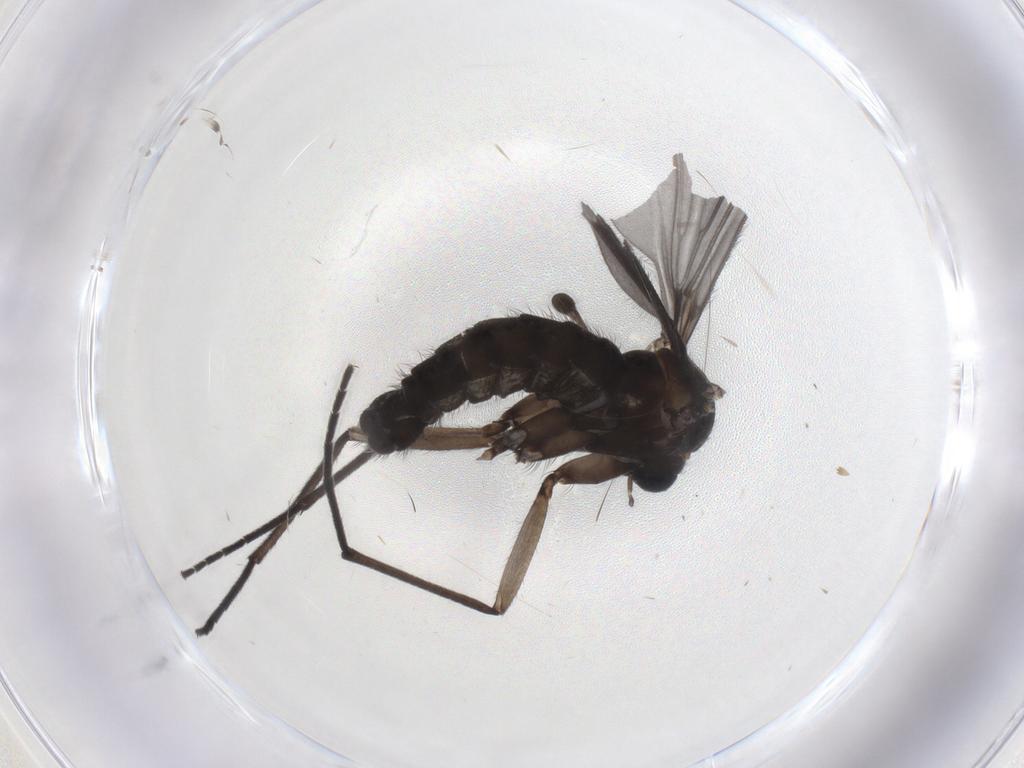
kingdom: Animalia
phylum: Arthropoda
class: Insecta
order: Diptera
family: Sciaridae
